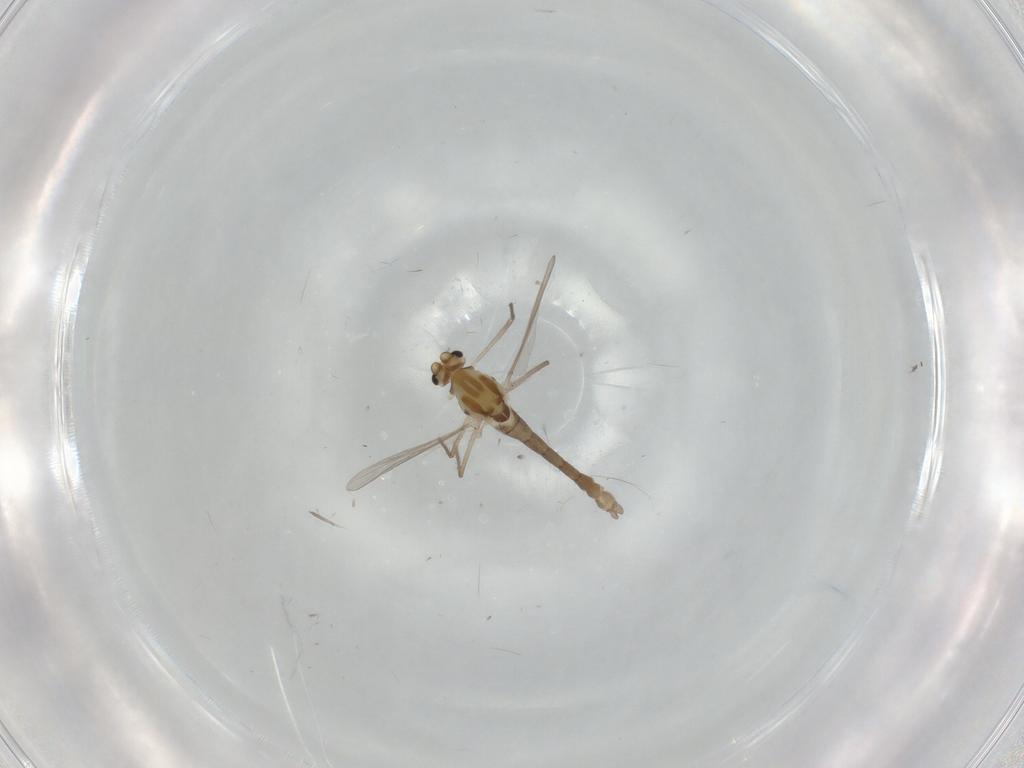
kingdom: Animalia
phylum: Arthropoda
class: Insecta
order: Diptera
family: Chironomidae
